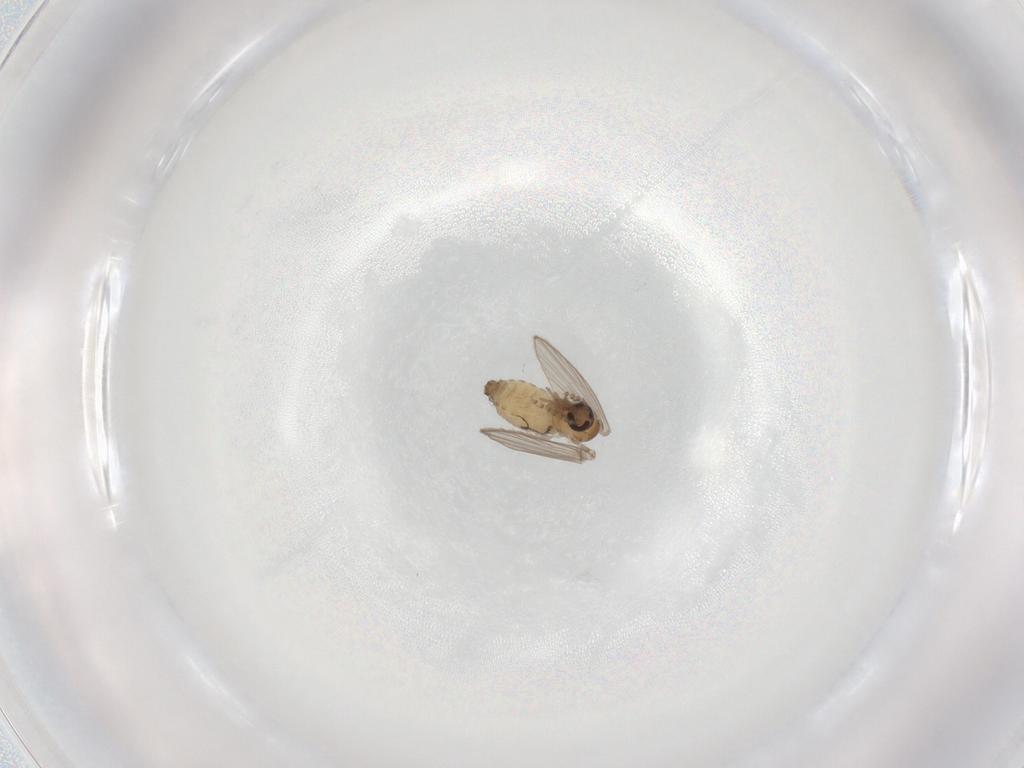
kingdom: Animalia
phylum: Arthropoda
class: Insecta
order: Diptera
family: Psychodidae
